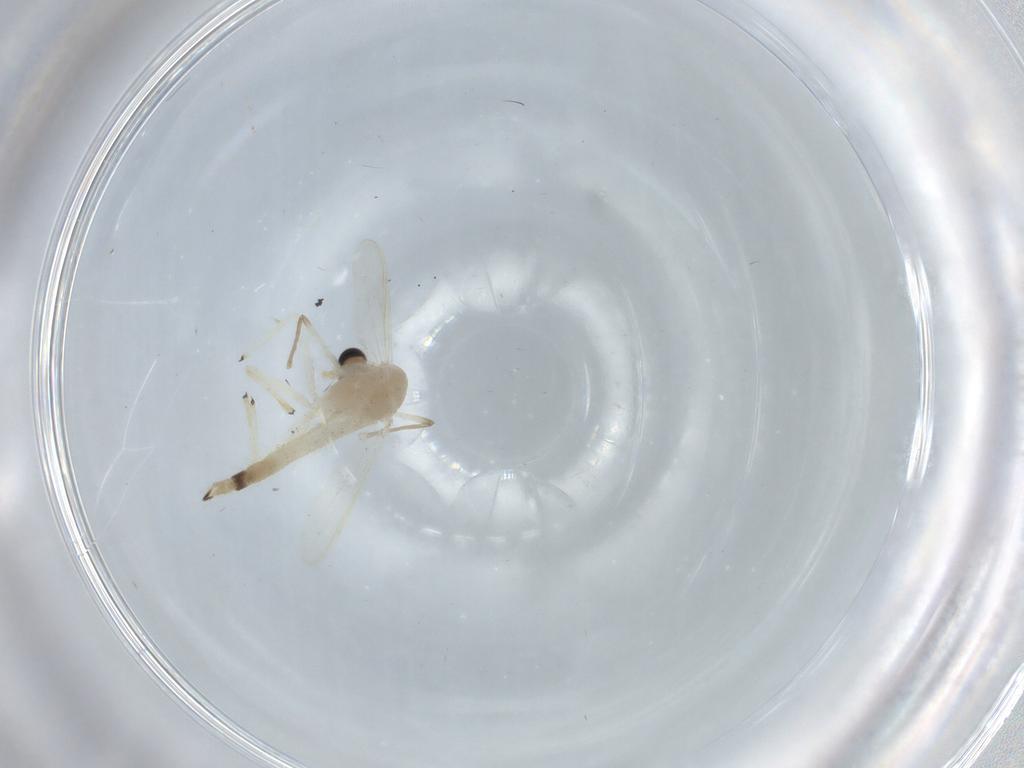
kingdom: Animalia
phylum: Arthropoda
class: Insecta
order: Diptera
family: Chironomidae
